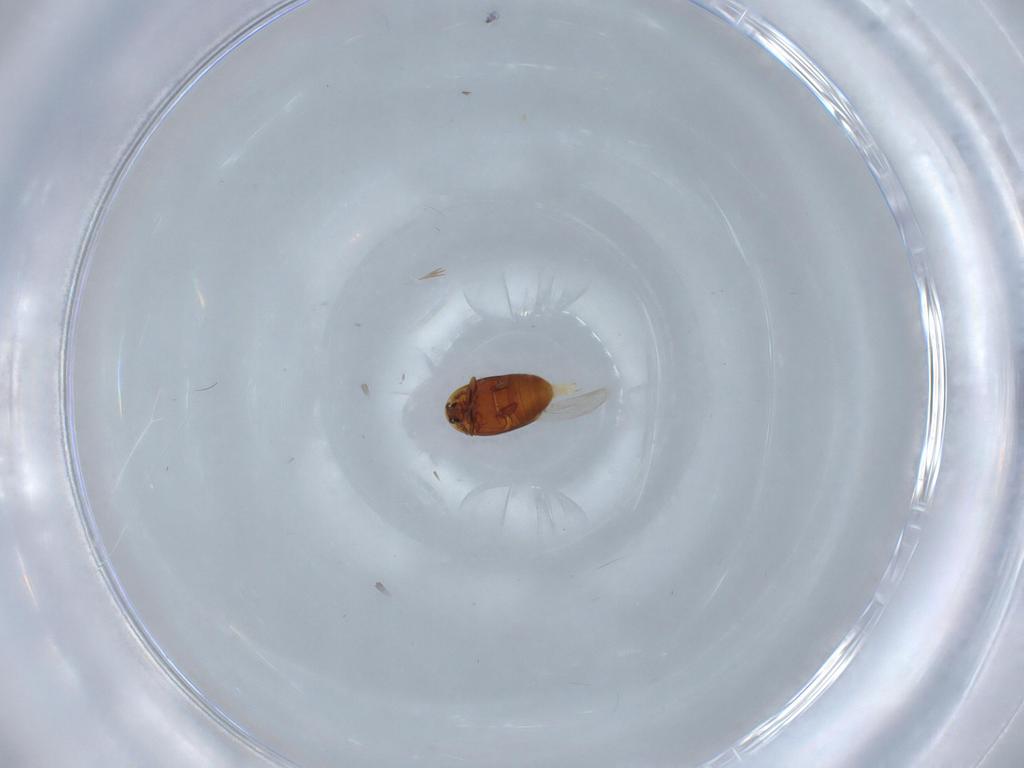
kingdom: Animalia
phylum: Arthropoda
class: Insecta
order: Coleoptera
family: Corylophidae
